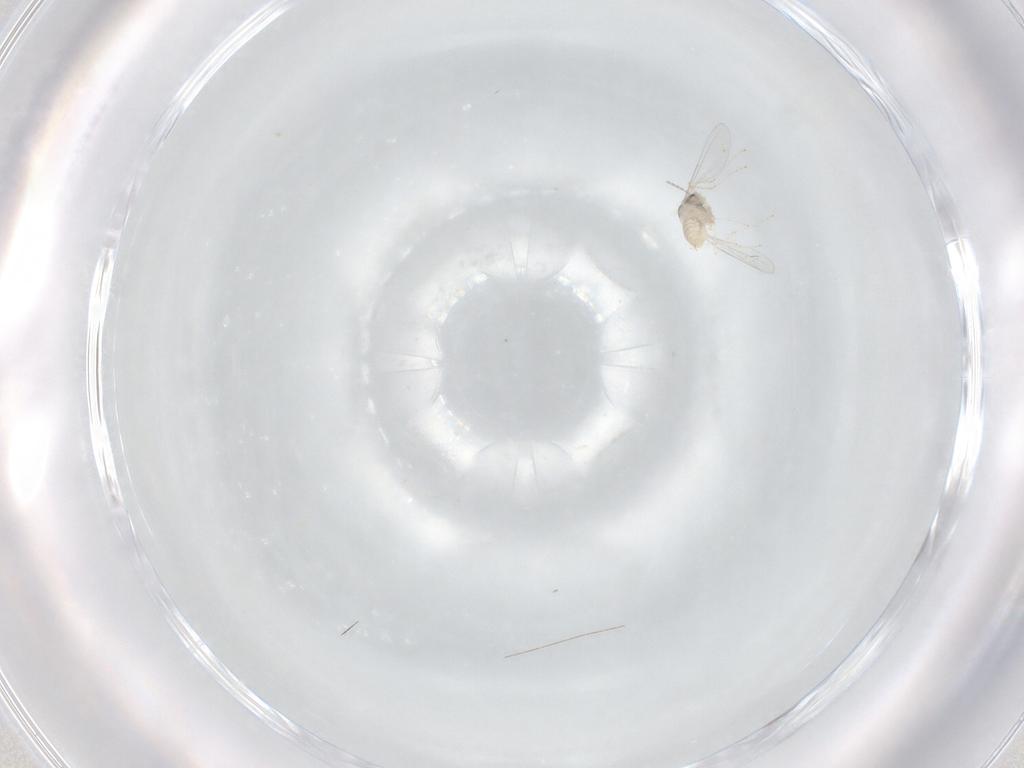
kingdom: Animalia
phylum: Arthropoda
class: Insecta
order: Diptera
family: Cecidomyiidae
